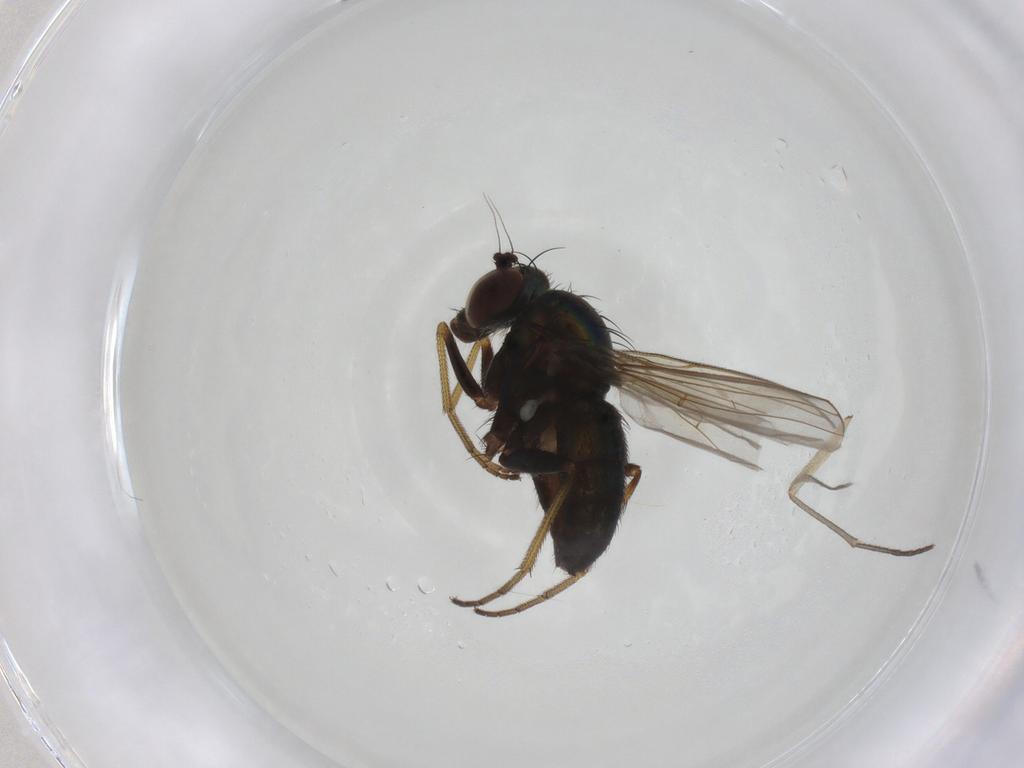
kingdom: Animalia
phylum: Arthropoda
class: Insecta
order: Diptera
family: Dolichopodidae
